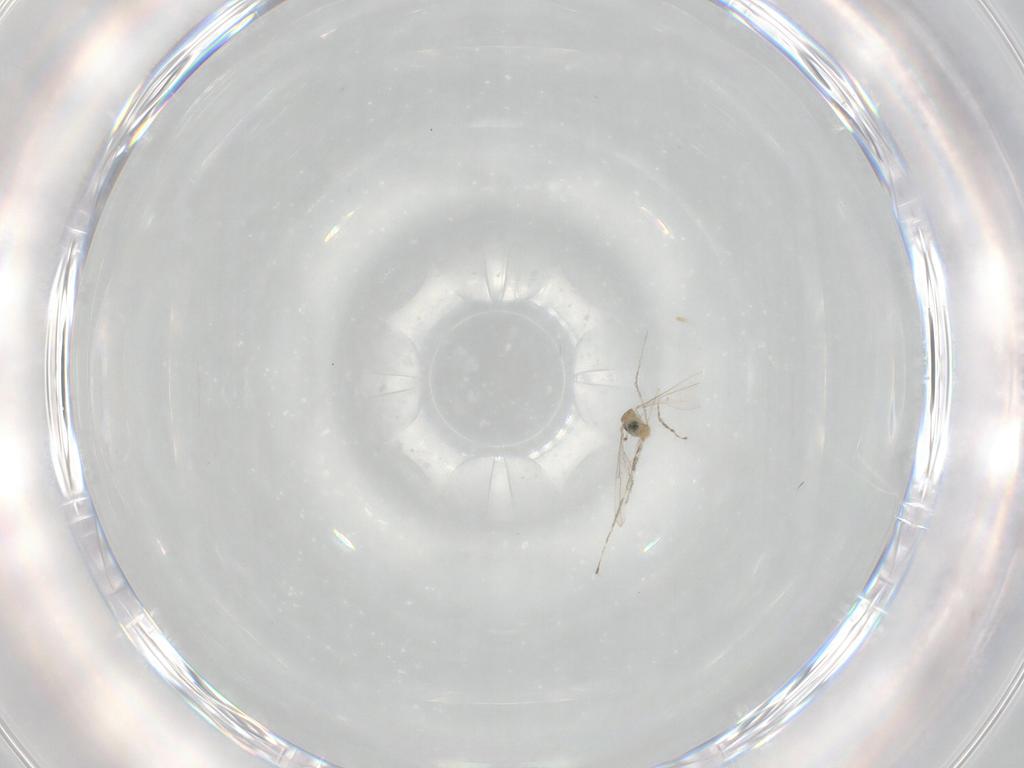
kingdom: Animalia
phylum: Arthropoda
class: Insecta
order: Diptera
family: Cecidomyiidae
